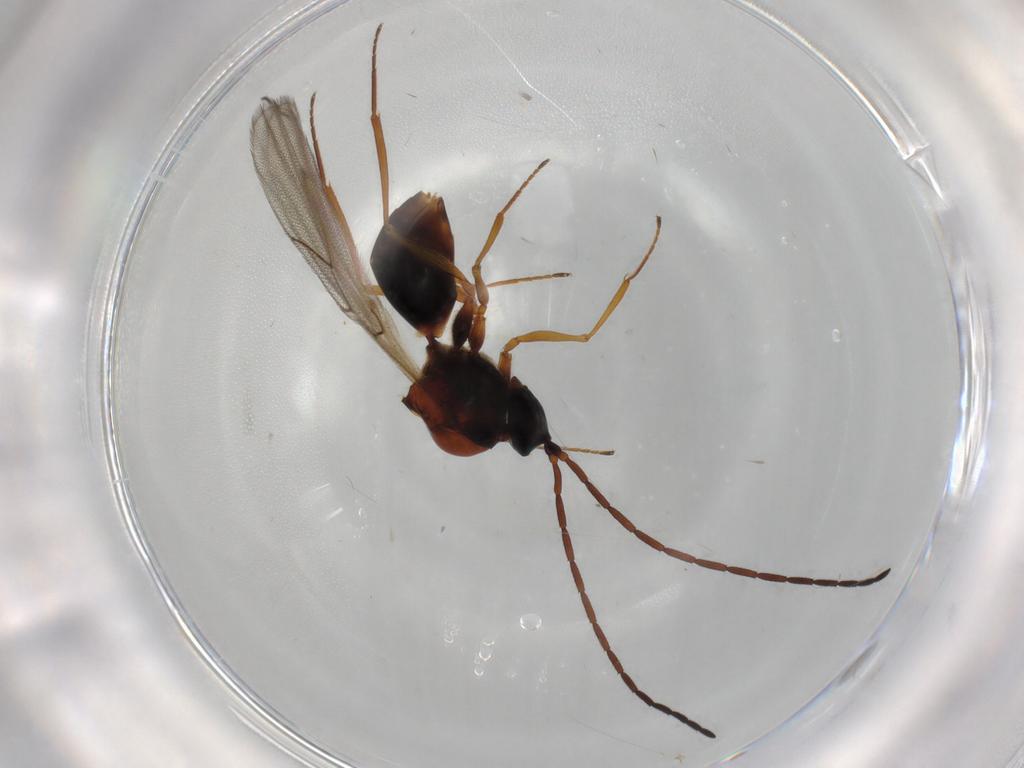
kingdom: Animalia
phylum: Arthropoda
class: Insecta
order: Hymenoptera
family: Figitidae
